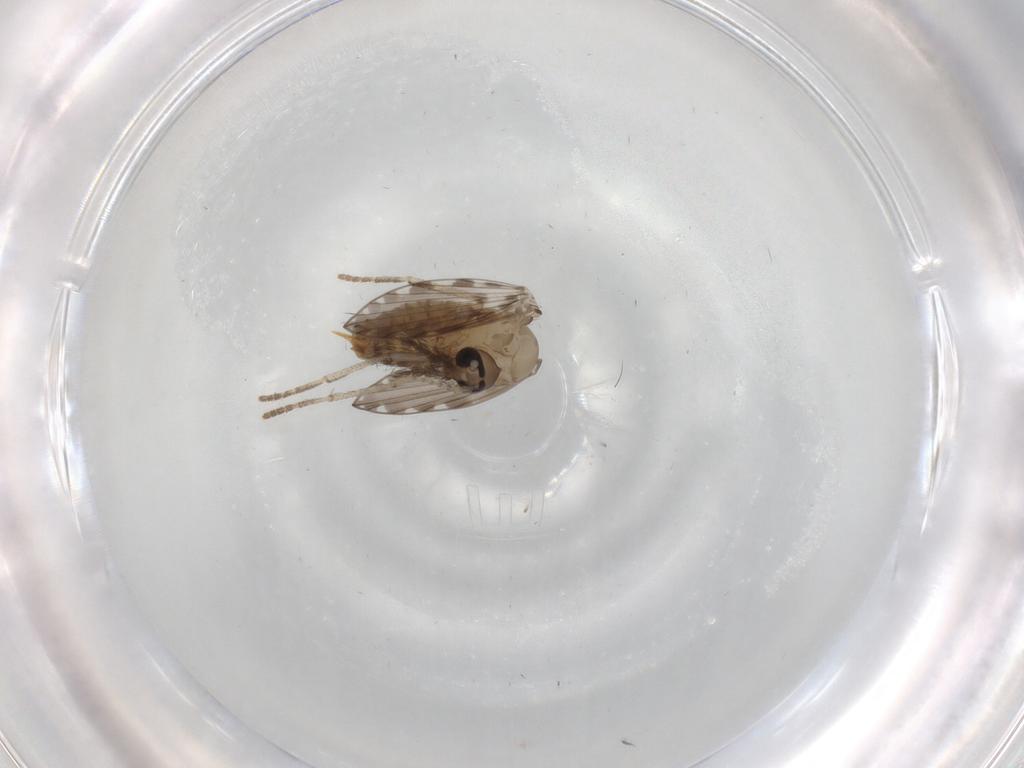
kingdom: Animalia
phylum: Arthropoda
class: Insecta
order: Diptera
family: Psychodidae
